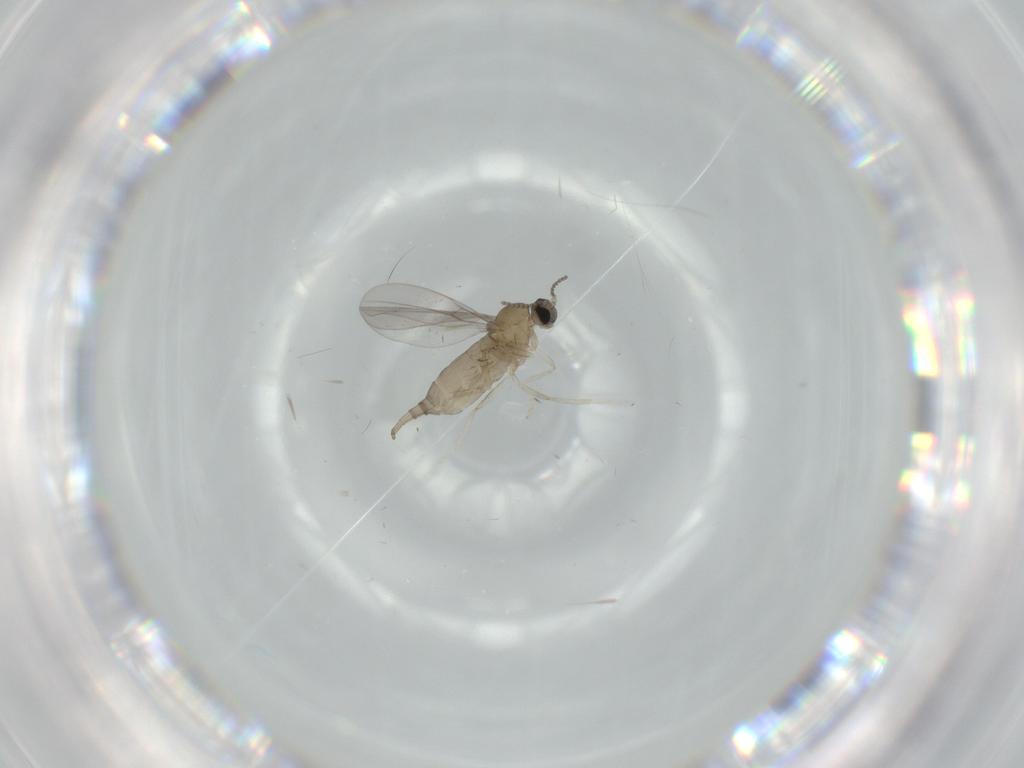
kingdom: Animalia
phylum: Arthropoda
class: Insecta
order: Diptera
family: Cecidomyiidae
